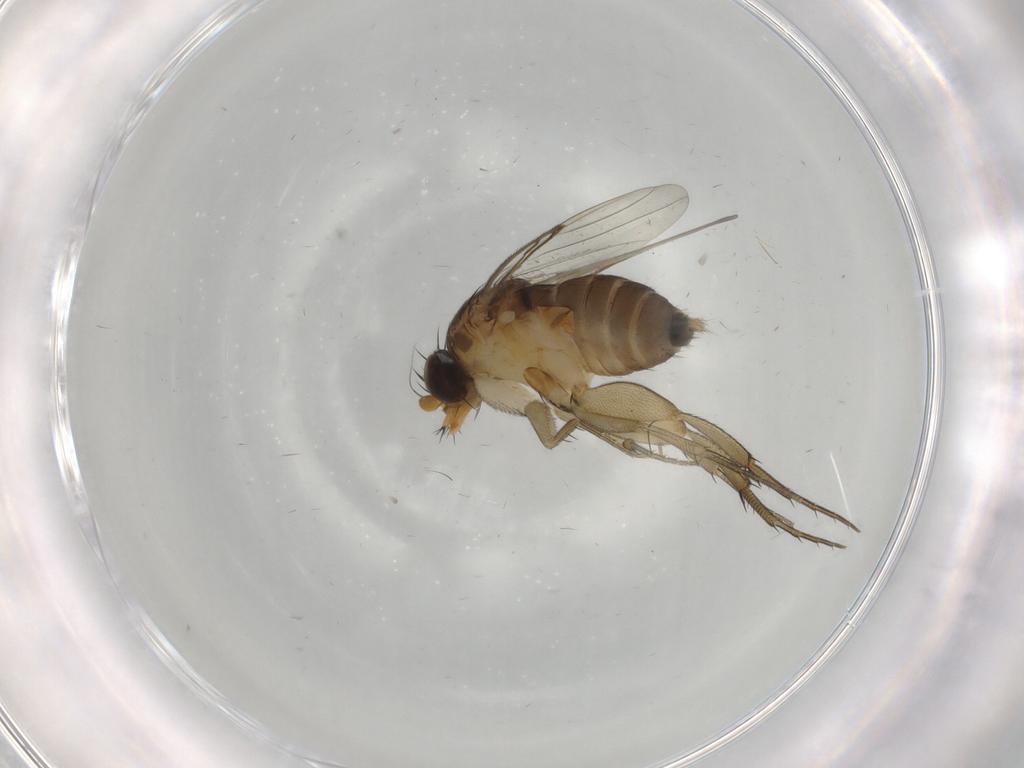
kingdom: Animalia
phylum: Arthropoda
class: Insecta
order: Diptera
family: Phoridae
